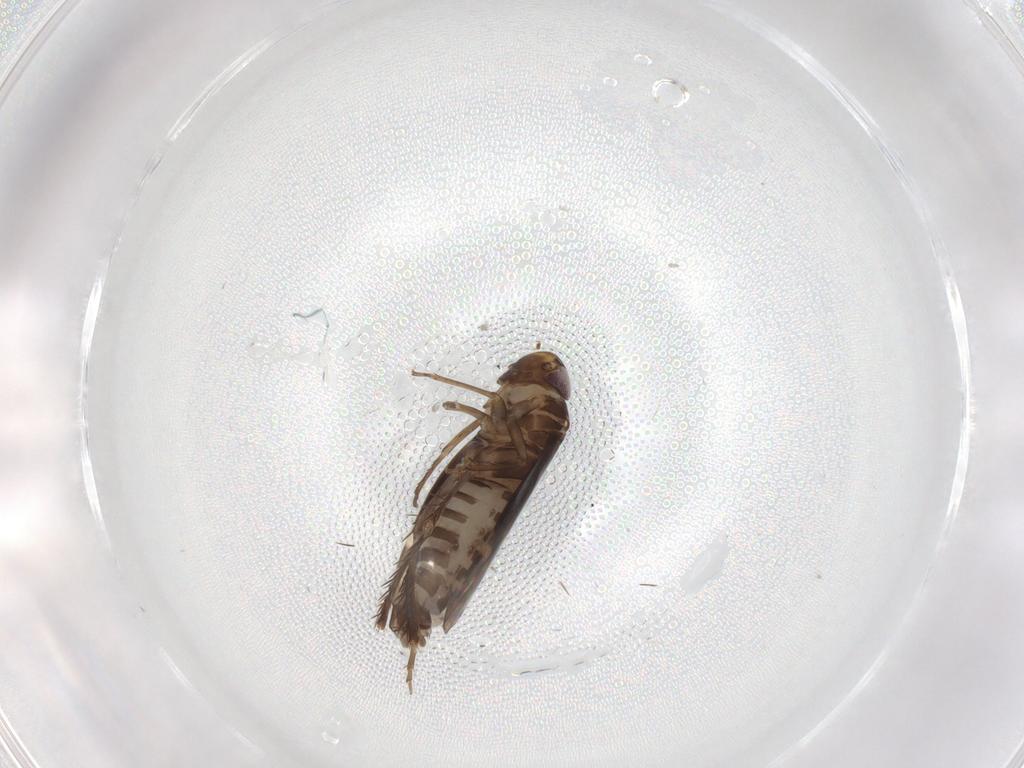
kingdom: Animalia
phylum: Arthropoda
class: Insecta
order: Hemiptera
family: Cicadellidae
